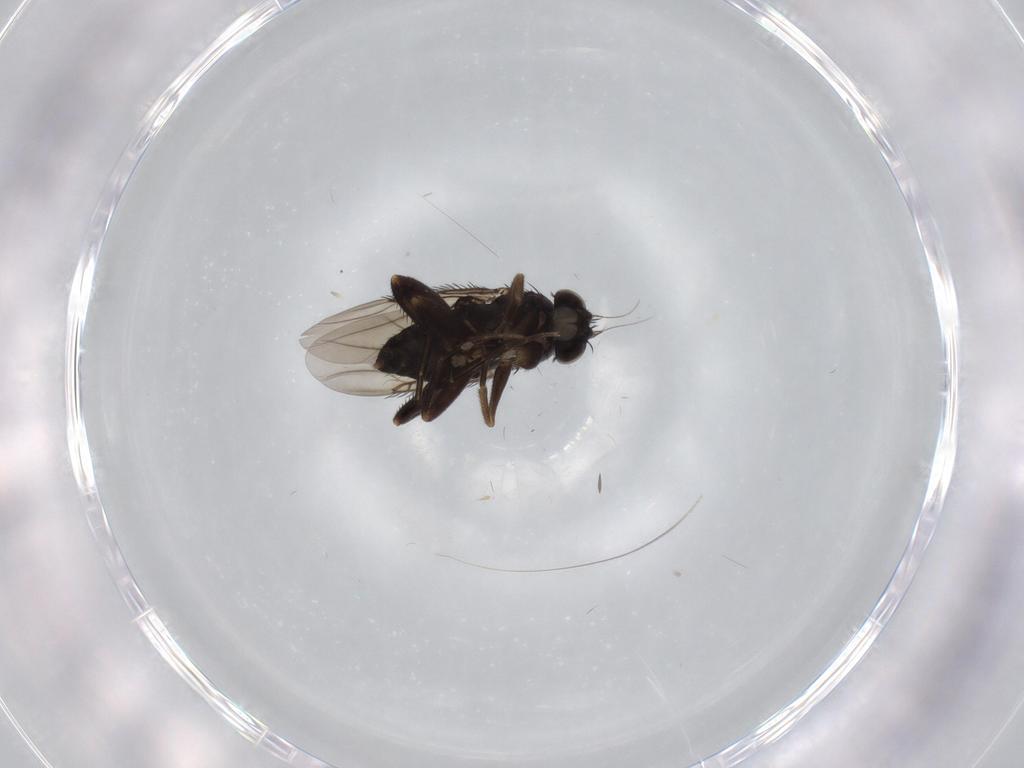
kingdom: Animalia
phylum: Arthropoda
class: Insecta
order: Diptera
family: Phoridae
